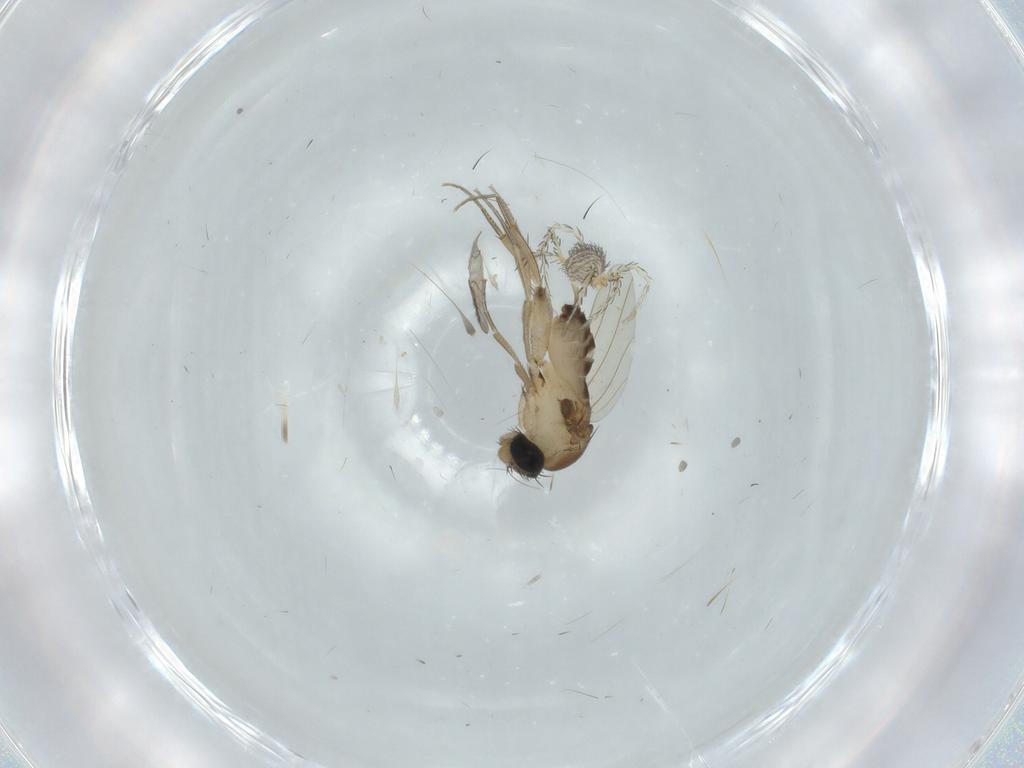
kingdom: Animalia
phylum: Arthropoda
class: Insecta
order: Diptera
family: Phoridae
